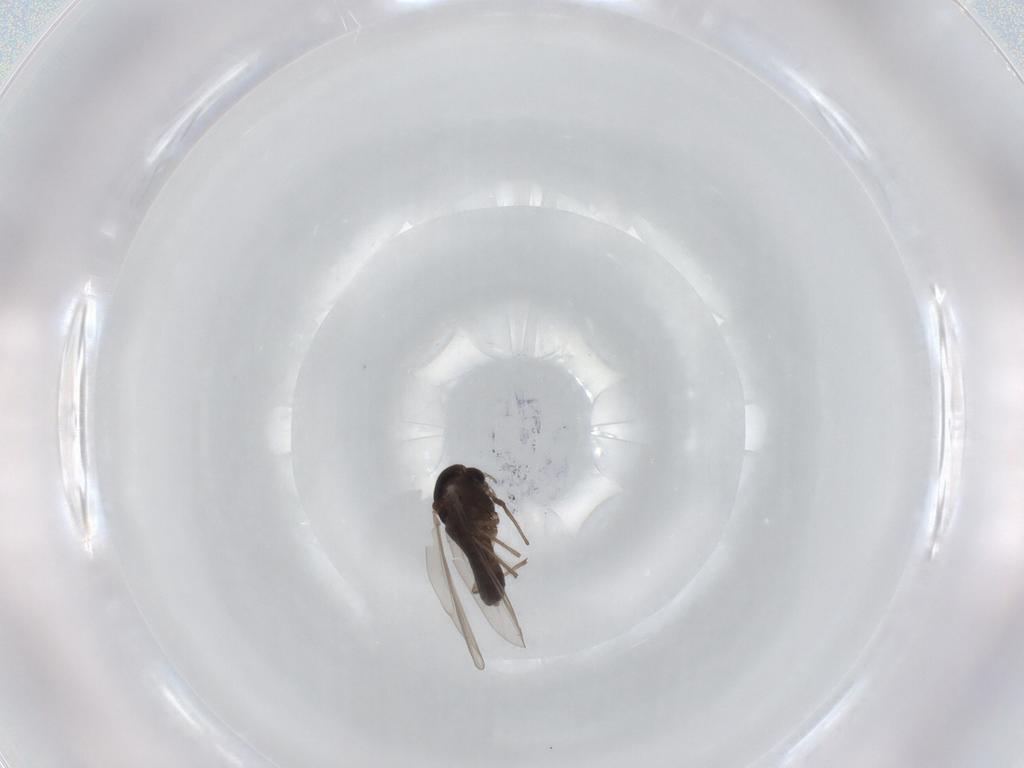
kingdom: Animalia
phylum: Arthropoda
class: Insecta
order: Diptera
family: Chironomidae
